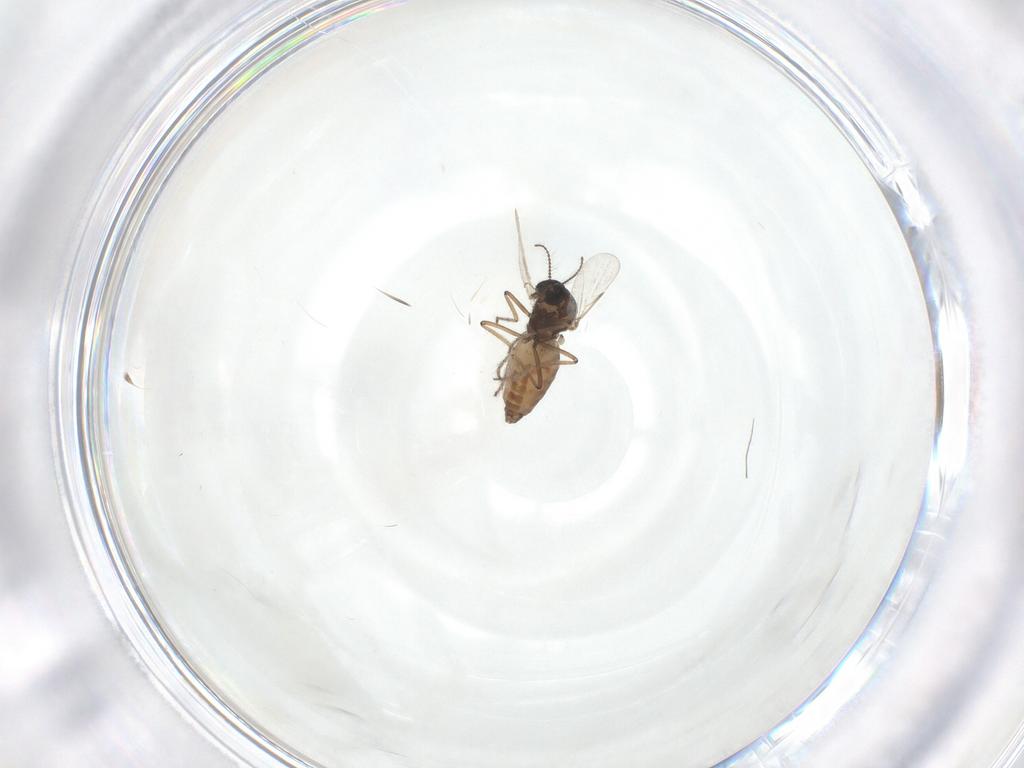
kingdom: Animalia
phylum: Arthropoda
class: Insecta
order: Diptera
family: Ceratopogonidae
